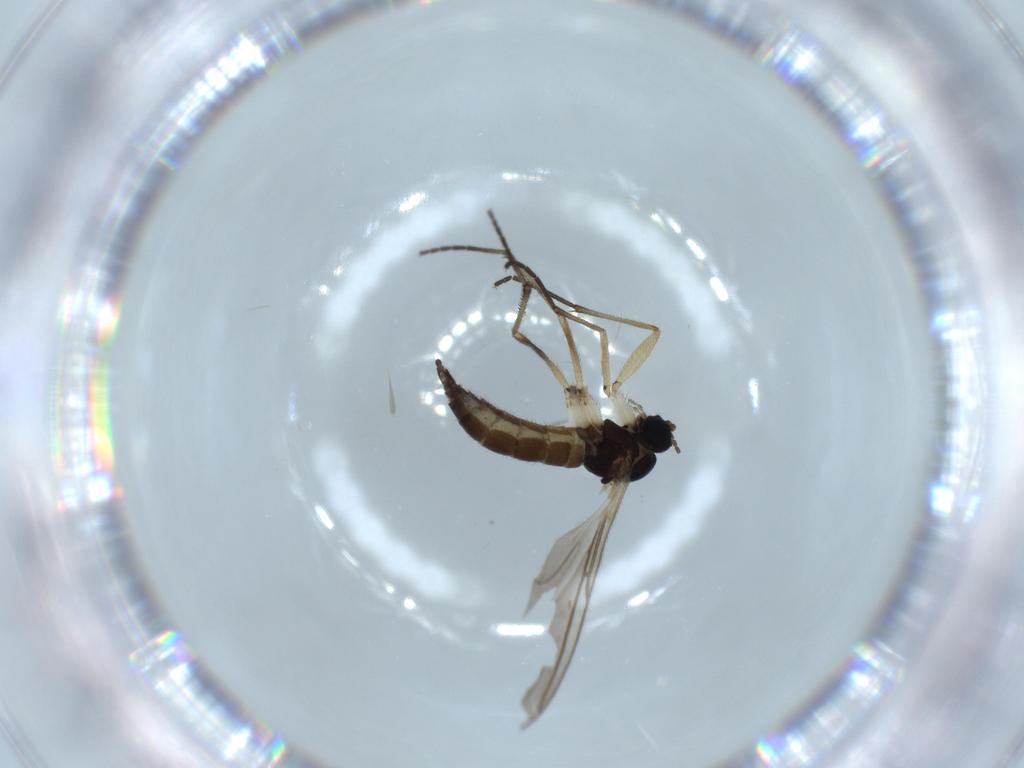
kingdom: Animalia
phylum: Arthropoda
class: Insecta
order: Diptera
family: Sciaridae
